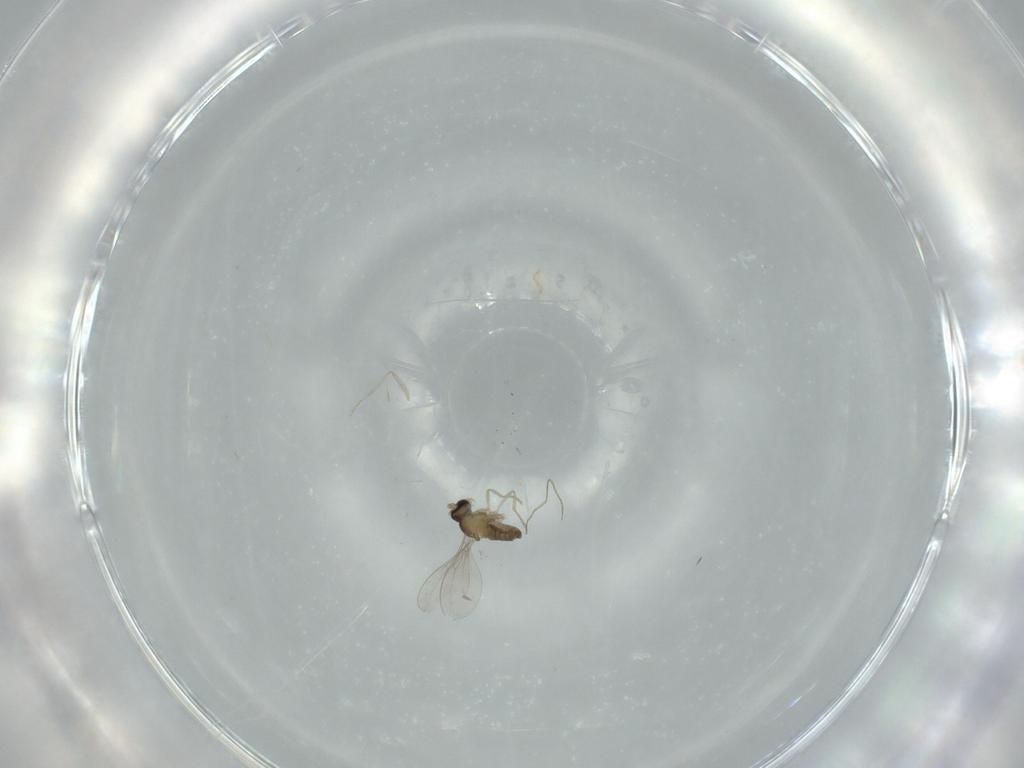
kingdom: Animalia
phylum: Arthropoda
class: Insecta
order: Diptera
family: Cecidomyiidae
